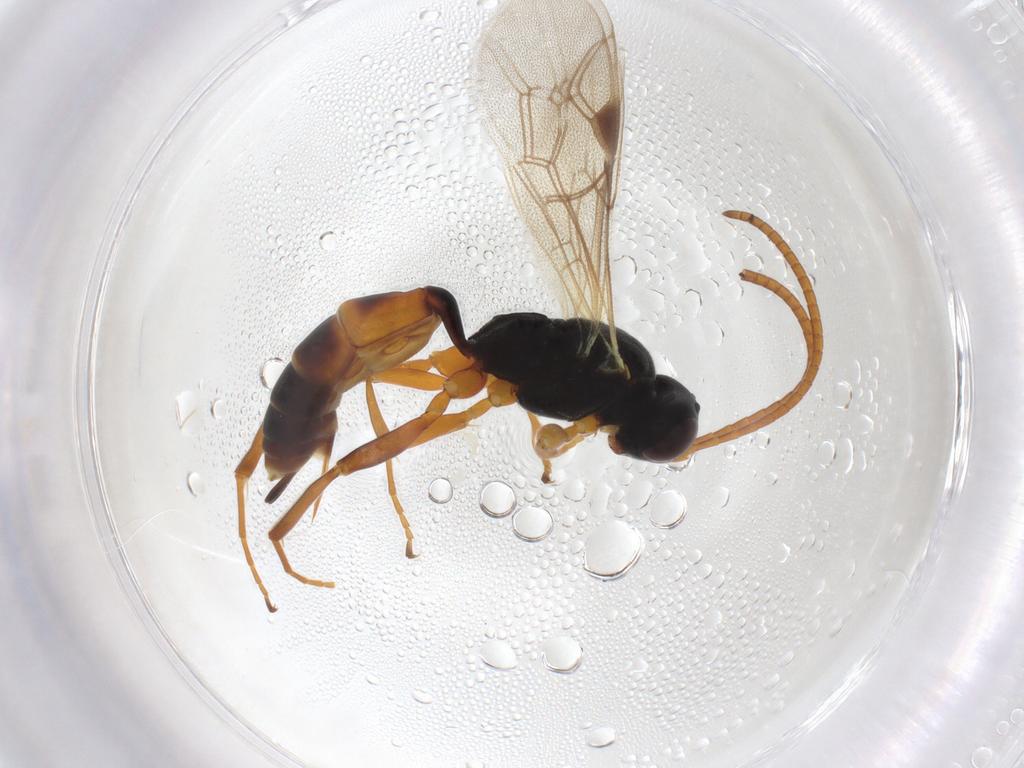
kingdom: Animalia
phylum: Arthropoda
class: Insecta
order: Hymenoptera
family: Ichneumonidae
